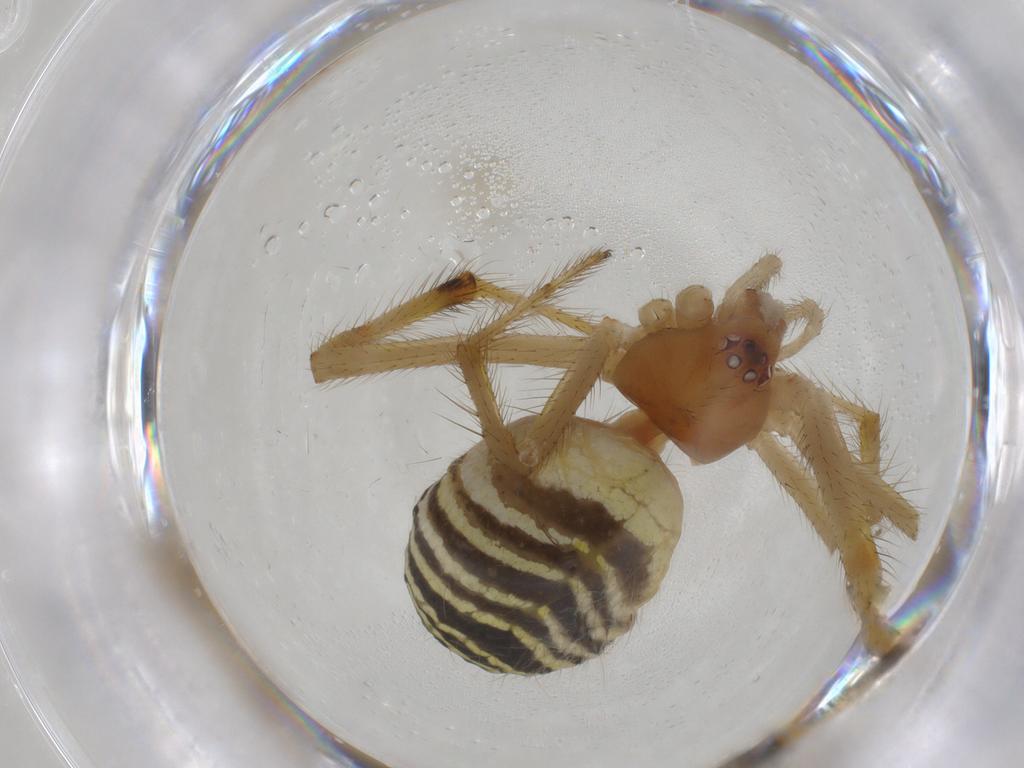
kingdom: Animalia
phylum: Arthropoda
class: Arachnida
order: Araneae
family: Theridiidae
